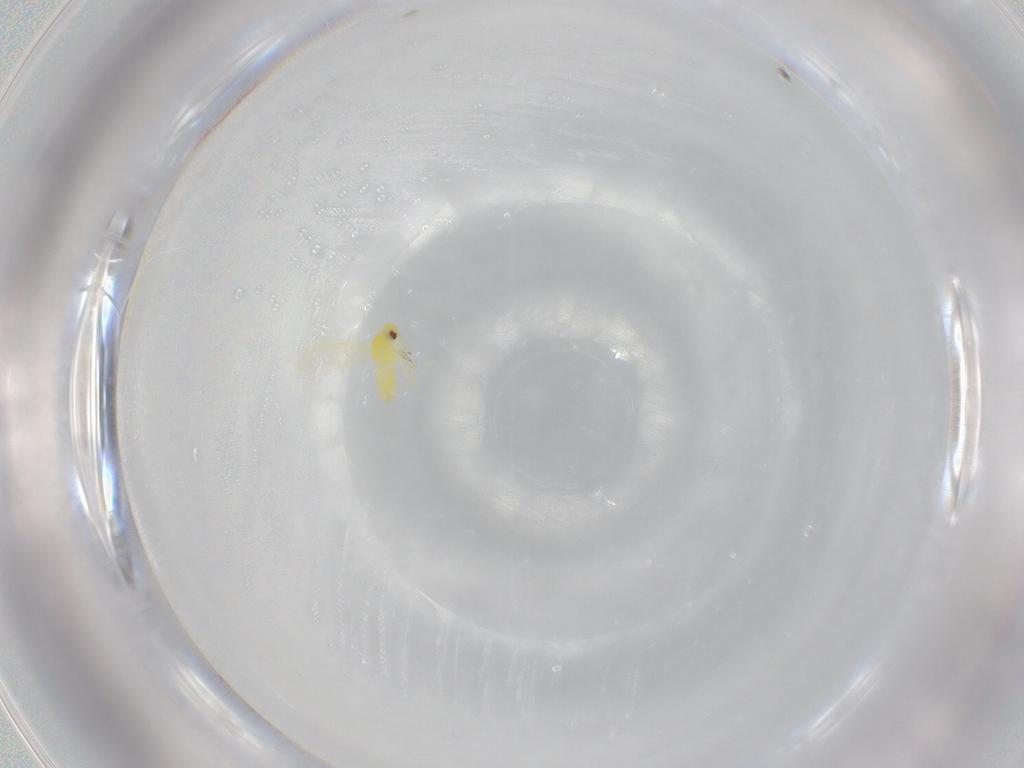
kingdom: Animalia
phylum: Arthropoda
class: Insecta
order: Hemiptera
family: Aleyrodidae
